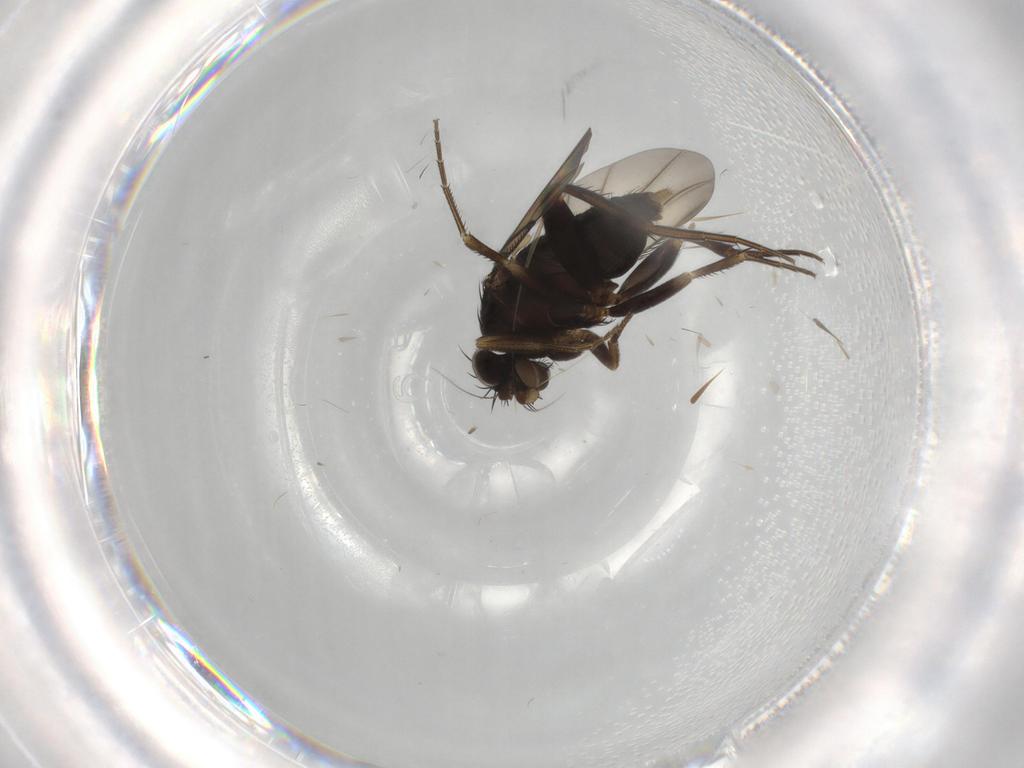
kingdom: Animalia
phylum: Arthropoda
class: Insecta
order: Diptera
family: Phoridae
